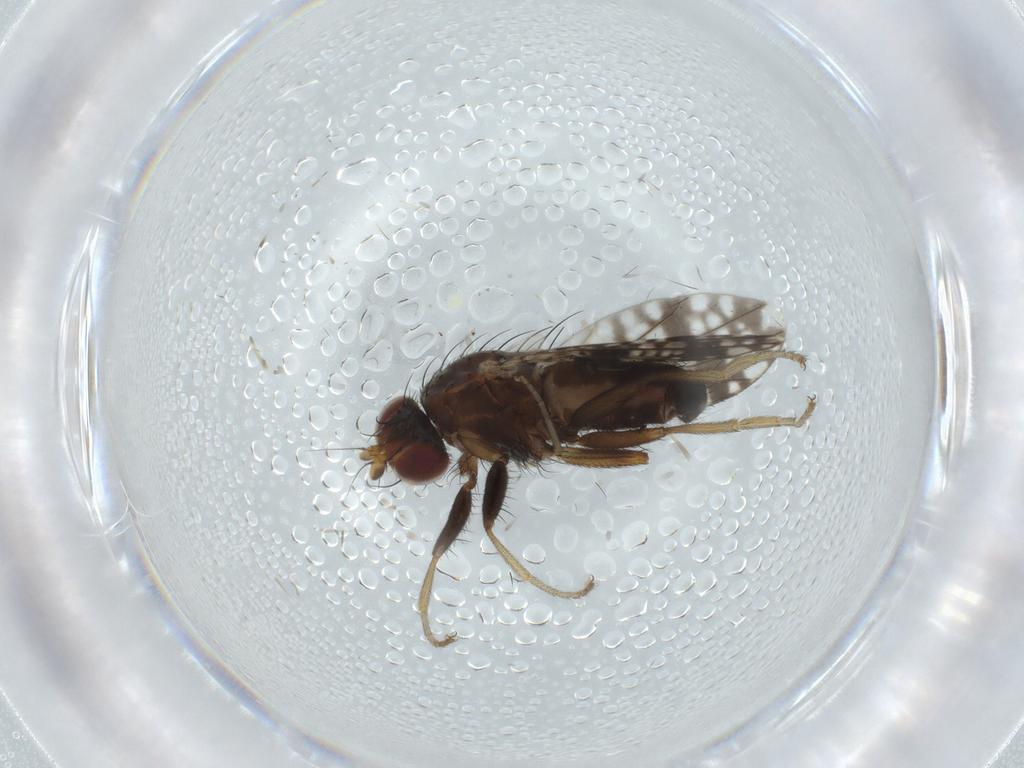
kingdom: Animalia
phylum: Arthropoda
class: Insecta
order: Diptera
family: Tephritidae
